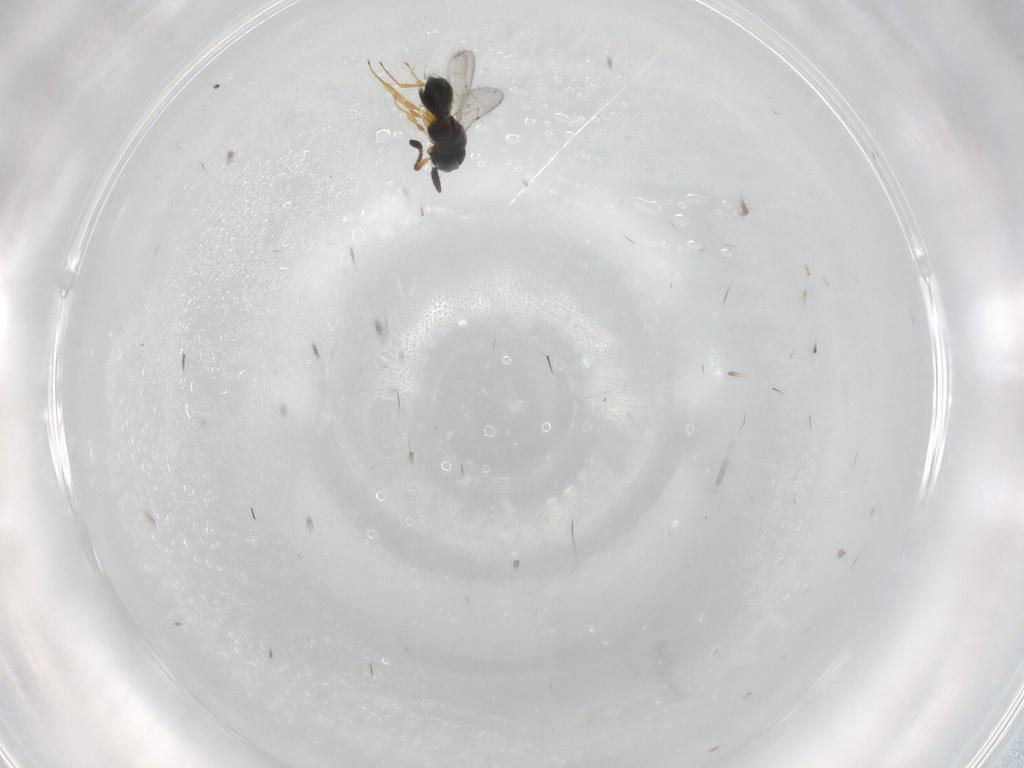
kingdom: Animalia
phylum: Arthropoda
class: Insecta
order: Hymenoptera
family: Scelionidae
